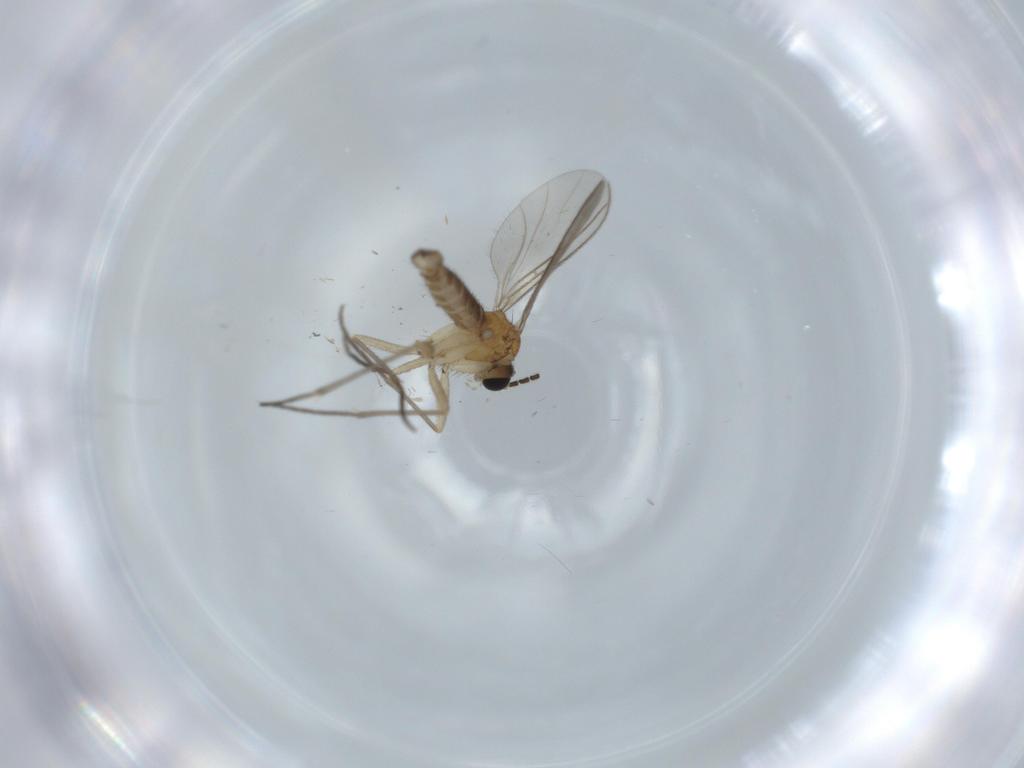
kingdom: Animalia
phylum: Arthropoda
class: Insecta
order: Diptera
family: Sciaridae
